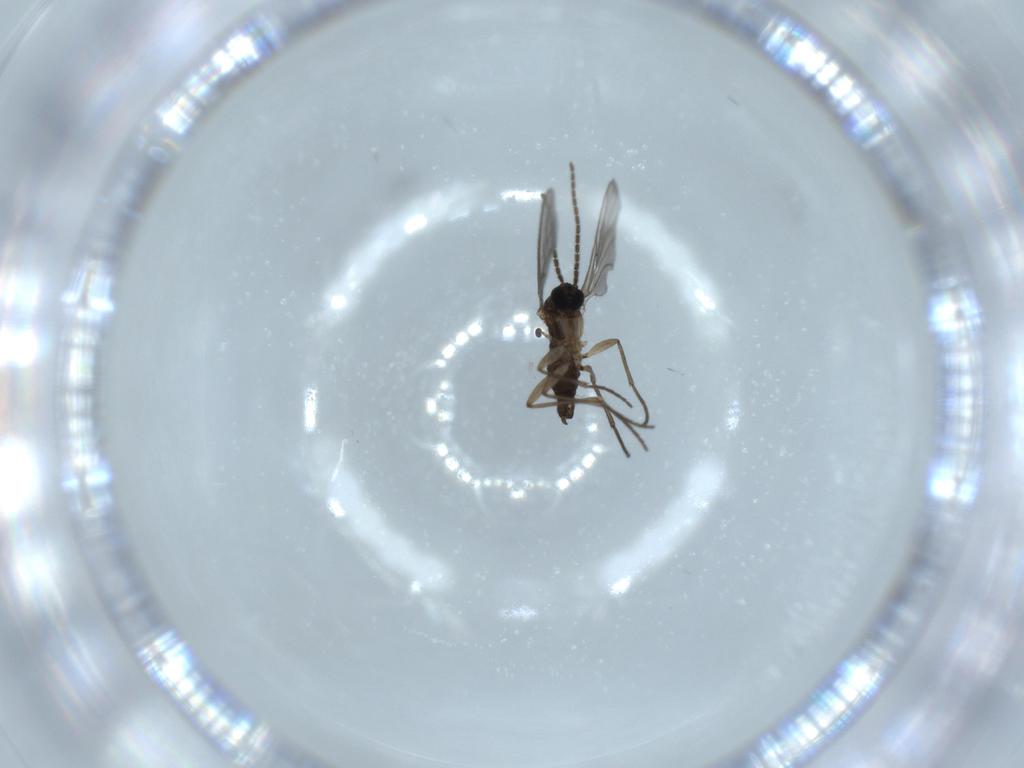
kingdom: Animalia
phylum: Arthropoda
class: Insecta
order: Diptera
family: Sciaridae
